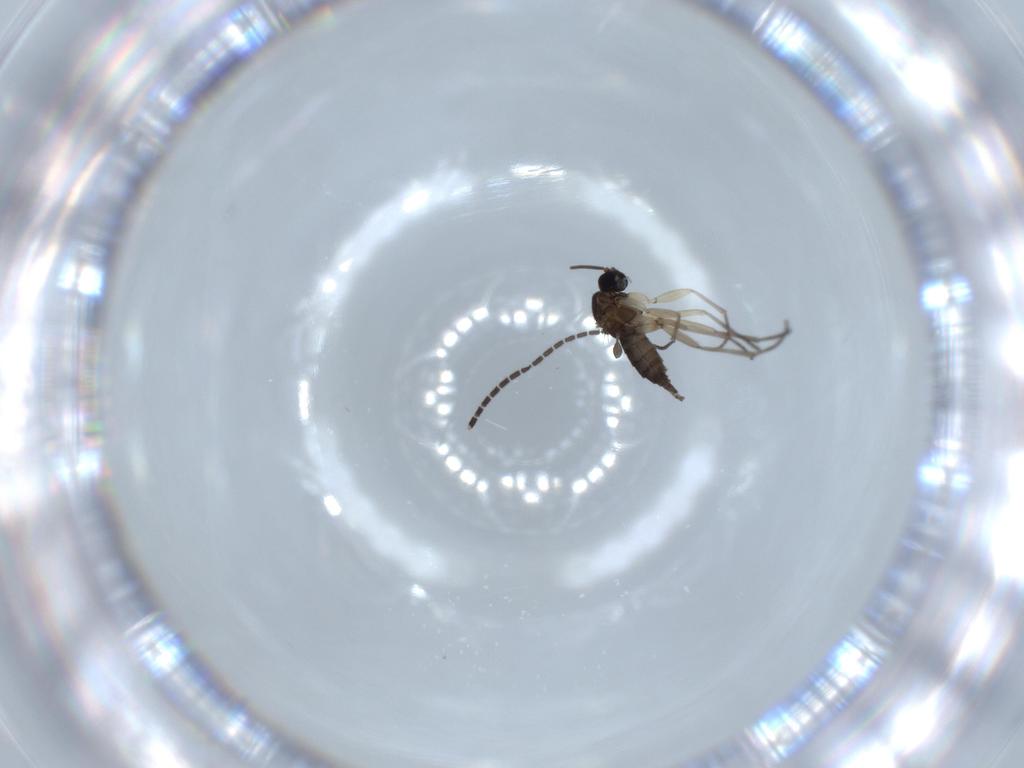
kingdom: Animalia
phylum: Arthropoda
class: Insecta
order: Diptera
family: Sciaridae
